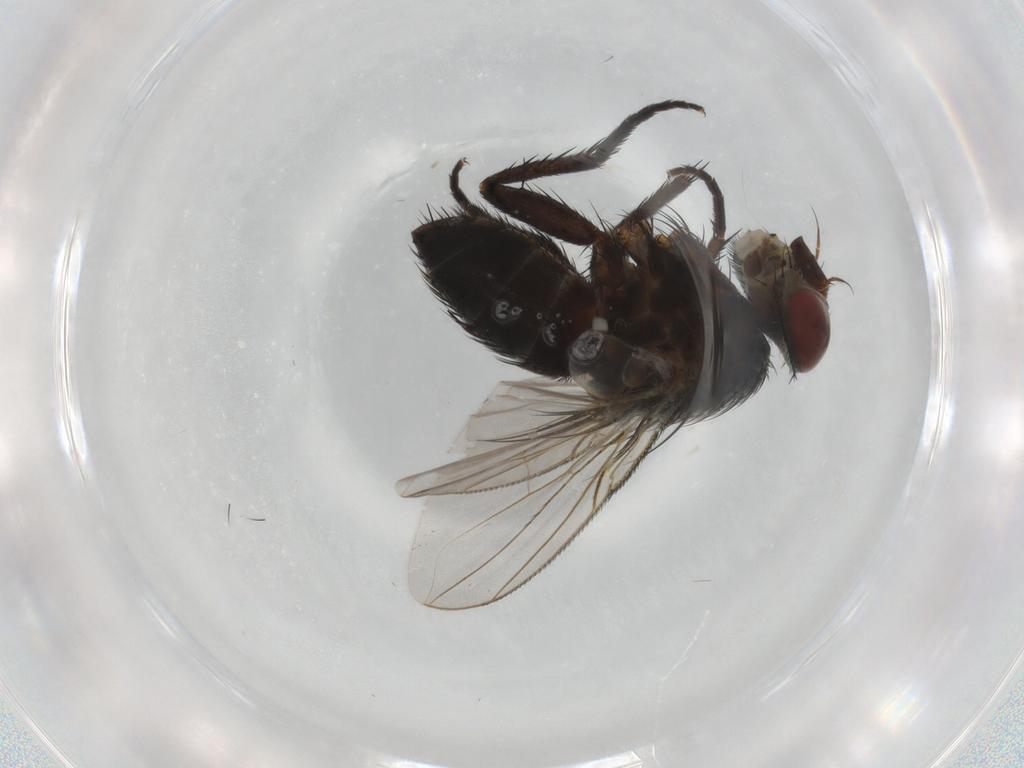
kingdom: Animalia
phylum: Arthropoda
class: Insecta
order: Diptera
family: Tachinidae
